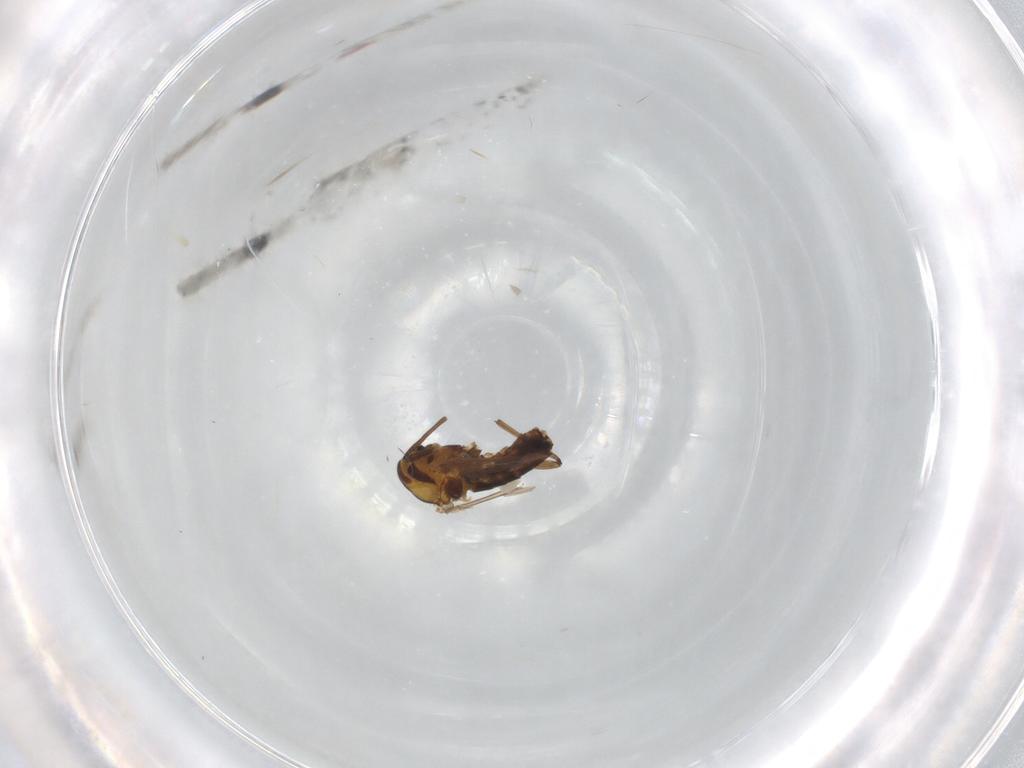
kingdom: Animalia
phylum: Arthropoda
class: Insecta
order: Diptera
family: Chironomidae
